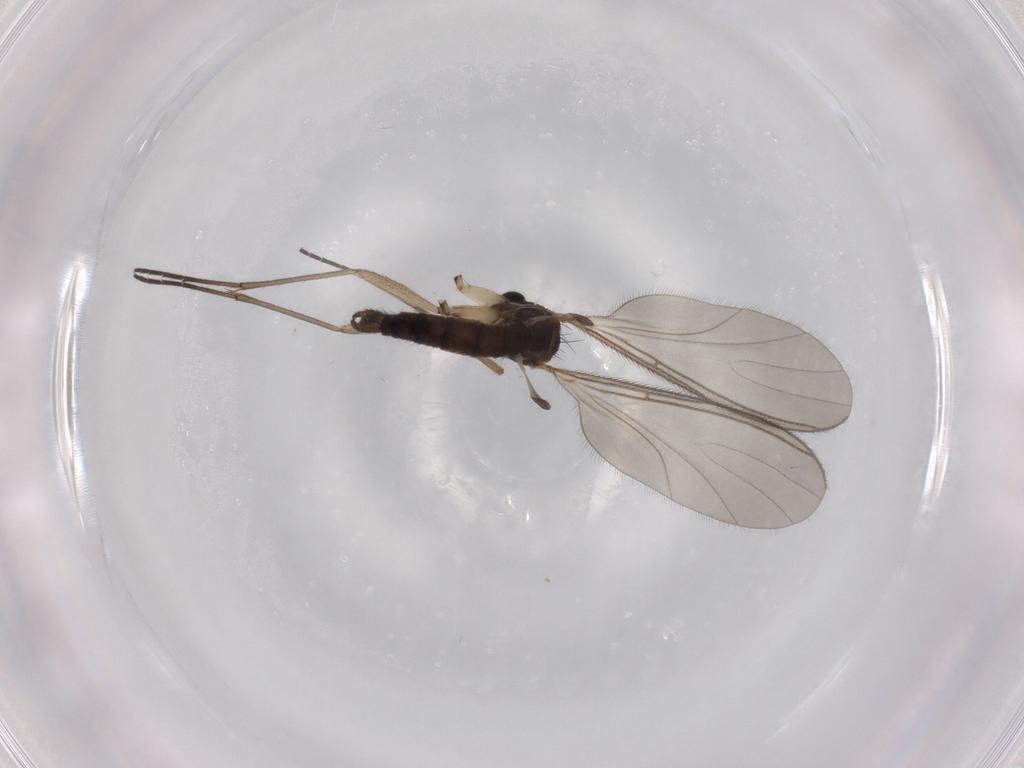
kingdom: Animalia
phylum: Arthropoda
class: Insecta
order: Diptera
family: Sciaridae
